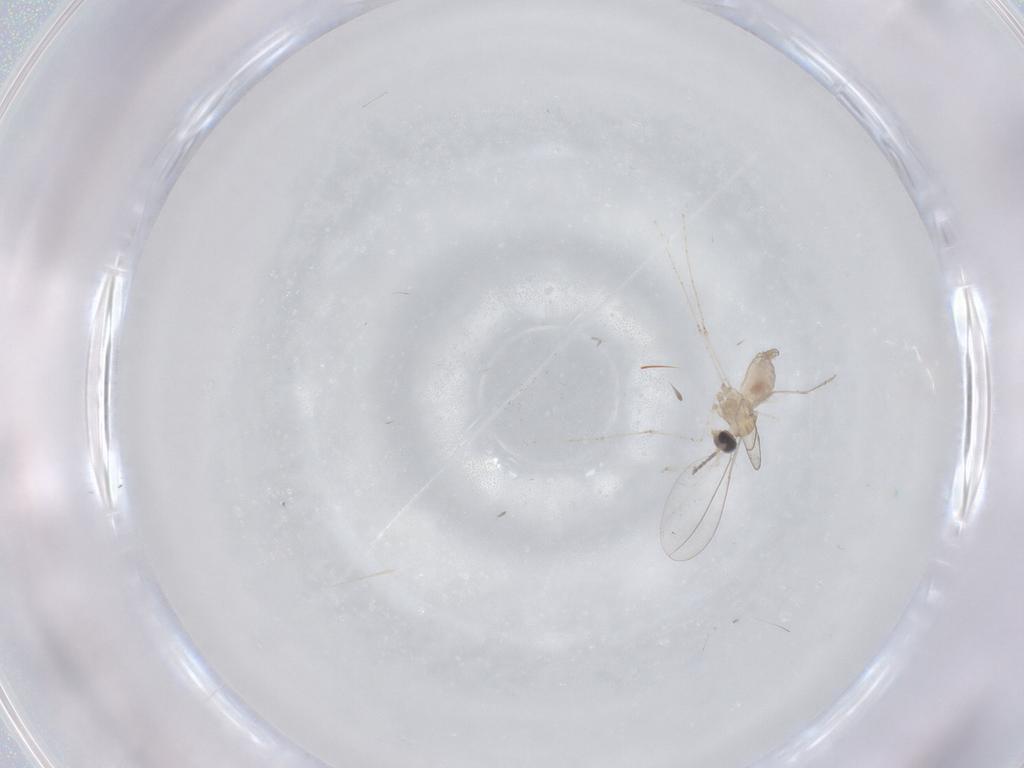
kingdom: Animalia
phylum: Arthropoda
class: Insecta
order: Diptera
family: Cecidomyiidae
